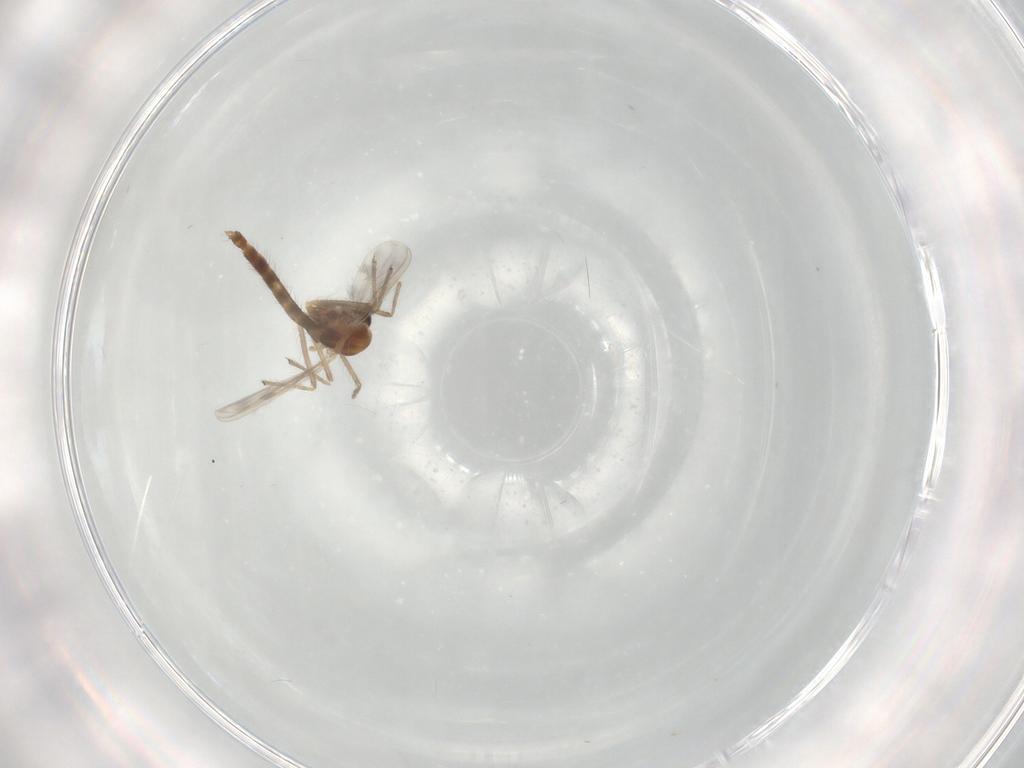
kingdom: Animalia
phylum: Arthropoda
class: Insecta
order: Diptera
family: Chironomidae
